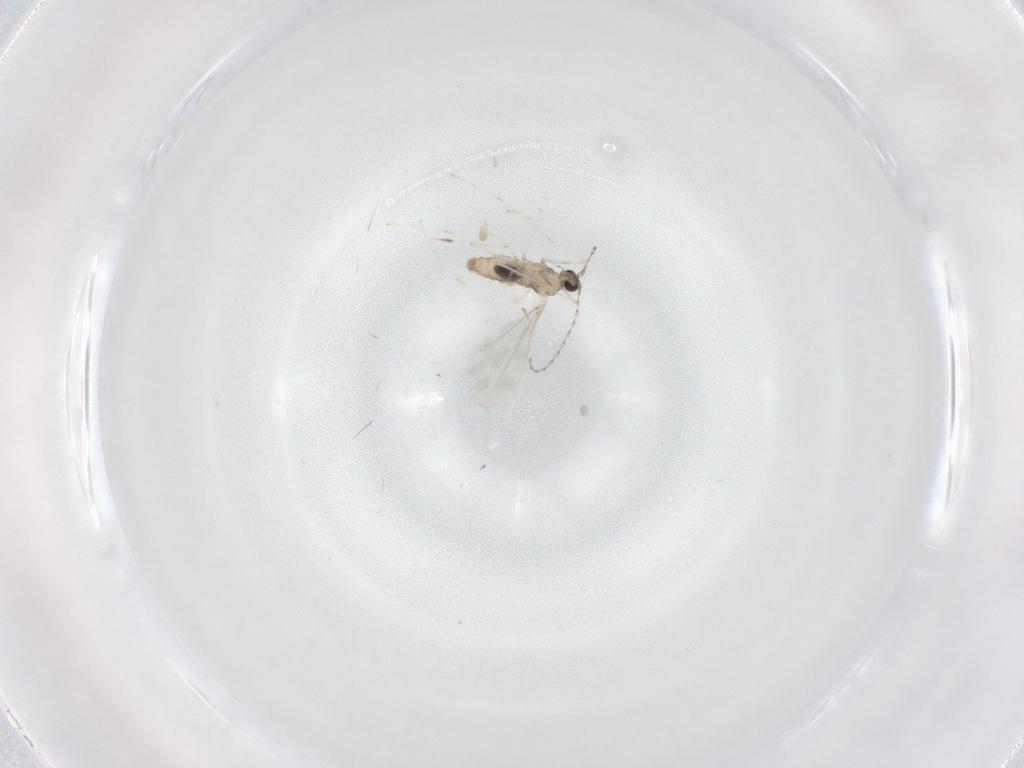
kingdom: Animalia
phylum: Arthropoda
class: Insecta
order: Diptera
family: Cecidomyiidae
